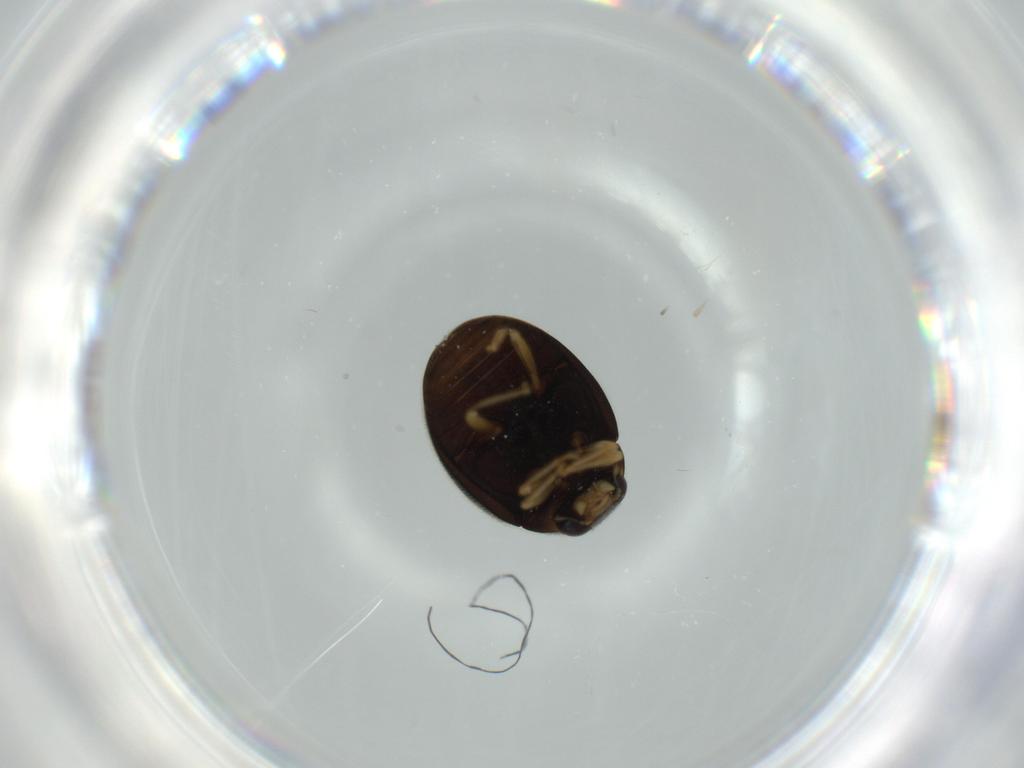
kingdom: Animalia
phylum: Arthropoda
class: Insecta
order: Coleoptera
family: Coccinellidae
